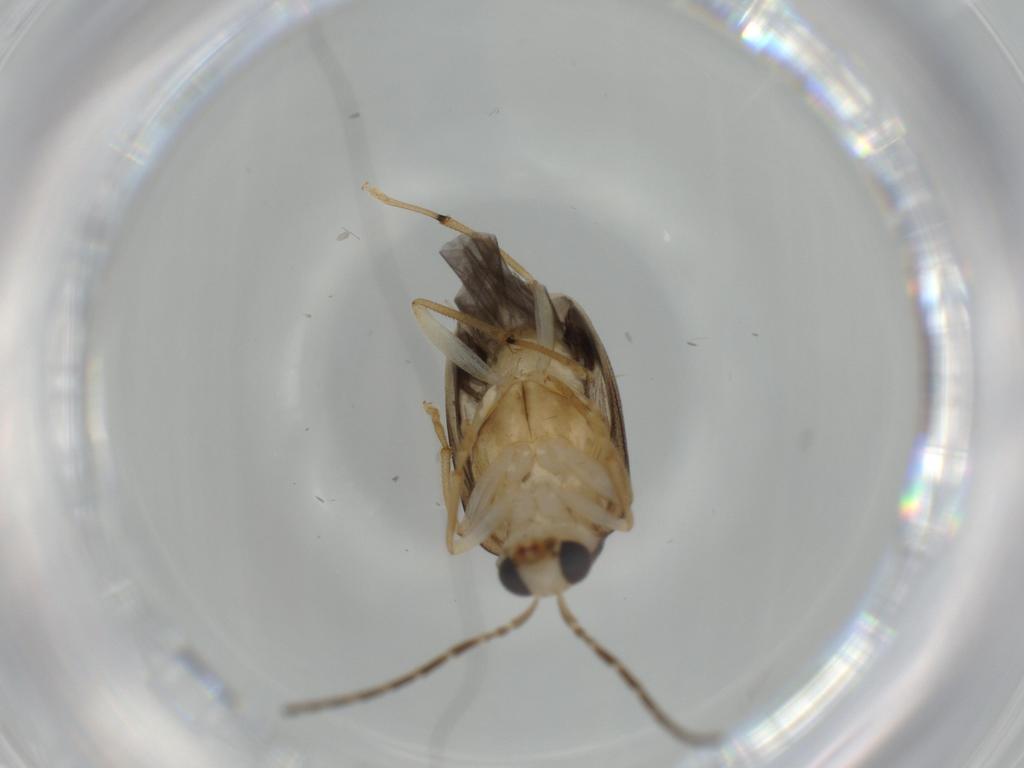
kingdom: Animalia
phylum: Arthropoda
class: Insecta
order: Coleoptera
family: Chrysomelidae
